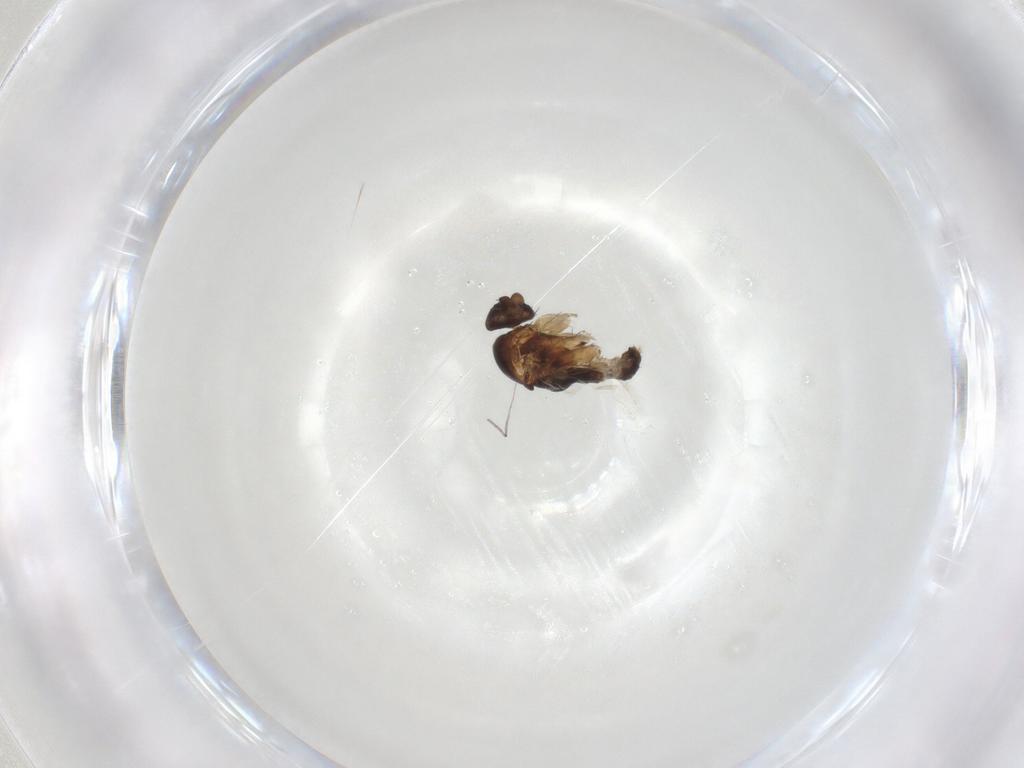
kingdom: Animalia
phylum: Arthropoda
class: Insecta
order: Diptera
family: Phoridae
